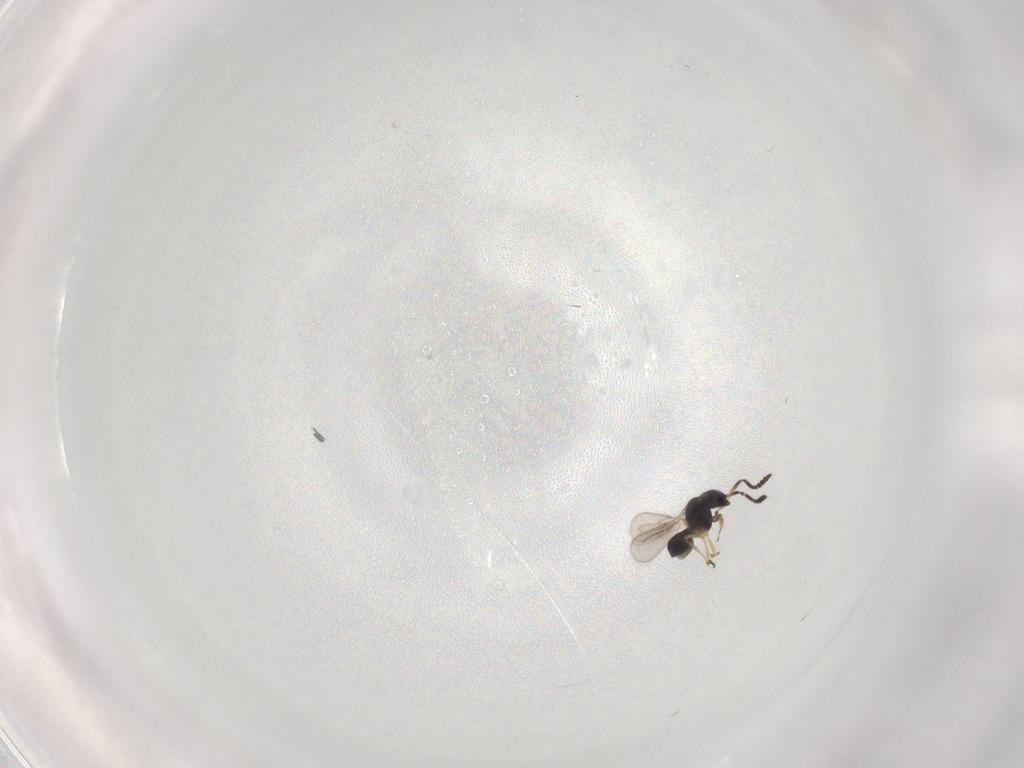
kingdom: Animalia
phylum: Arthropoda
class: Insecta
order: Hymenoptera
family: Scelionidae
